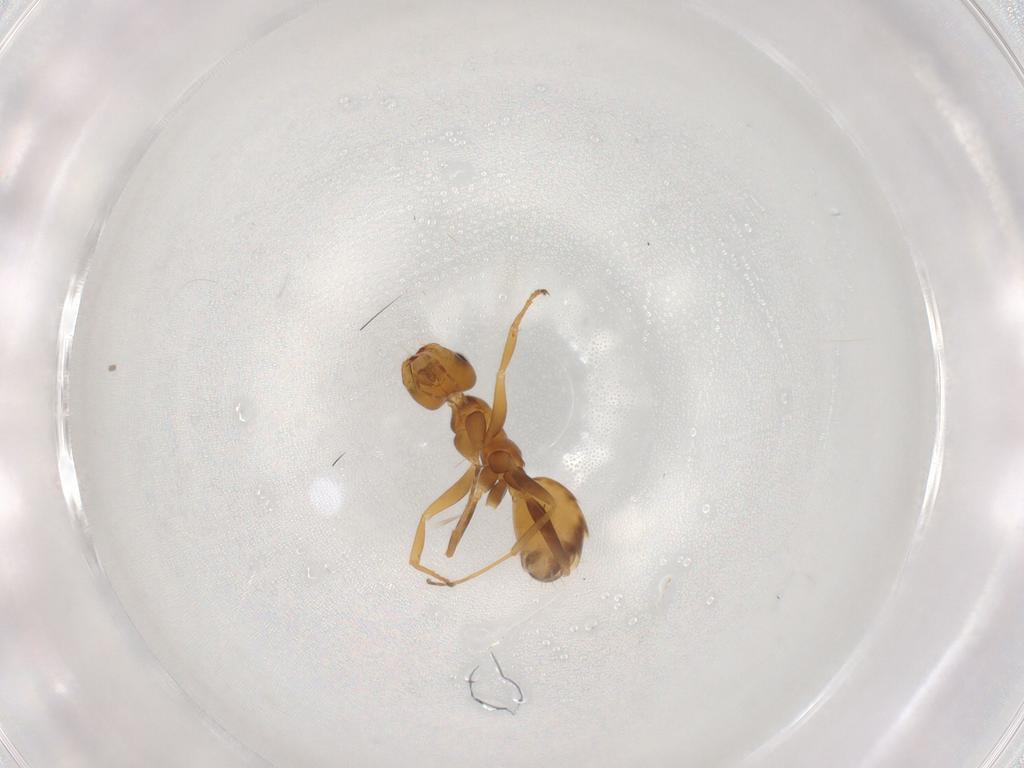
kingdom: Animalia
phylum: Arthropoda
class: Insecta
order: Hymenoptera
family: Formicidae
